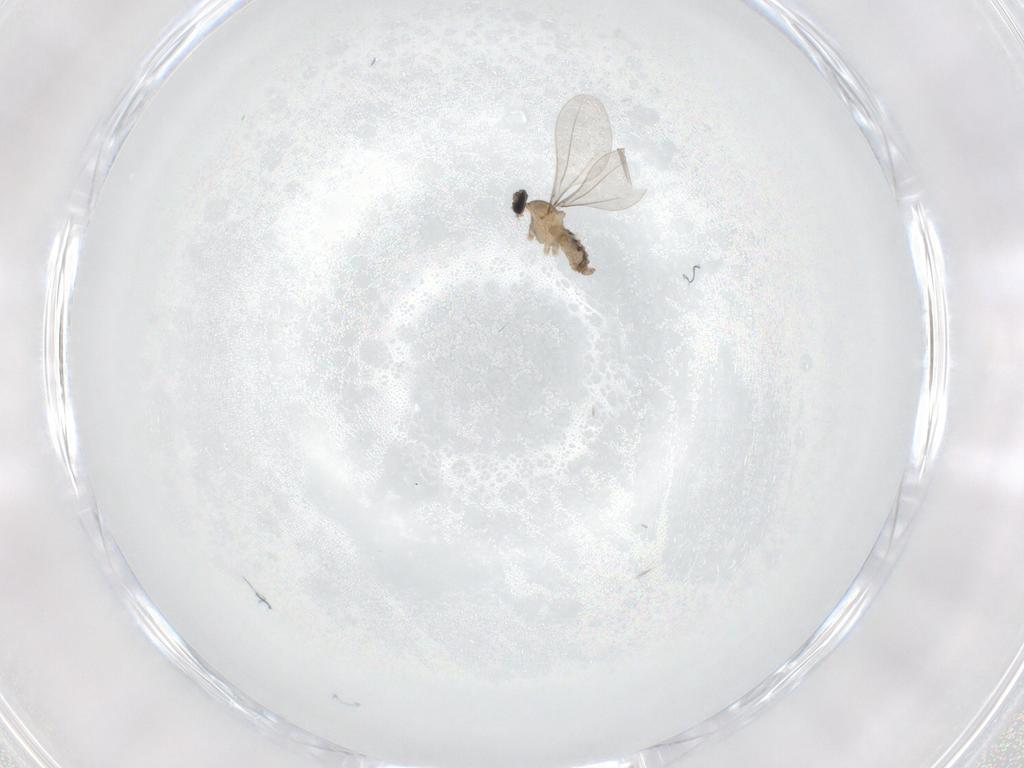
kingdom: Animalia
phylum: Arthropoda
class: Insecta
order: Diptera
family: Cecidomyiidae
